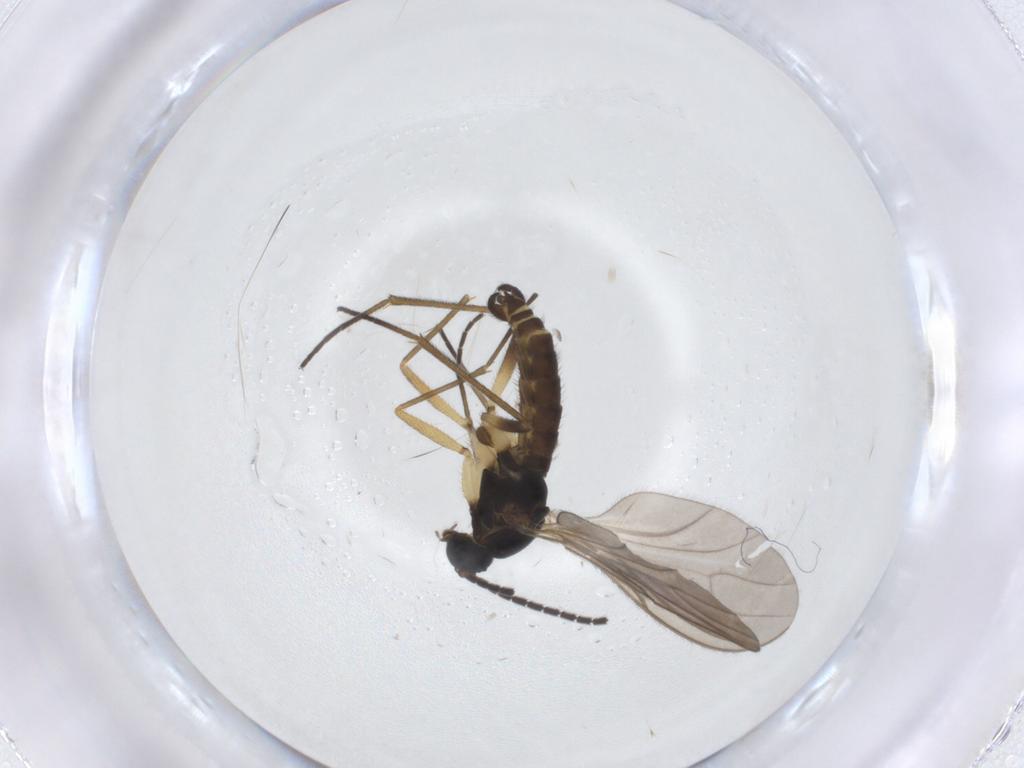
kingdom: Animalia
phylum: Arthropoda
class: Insecta
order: Diptera
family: Sciaridae
